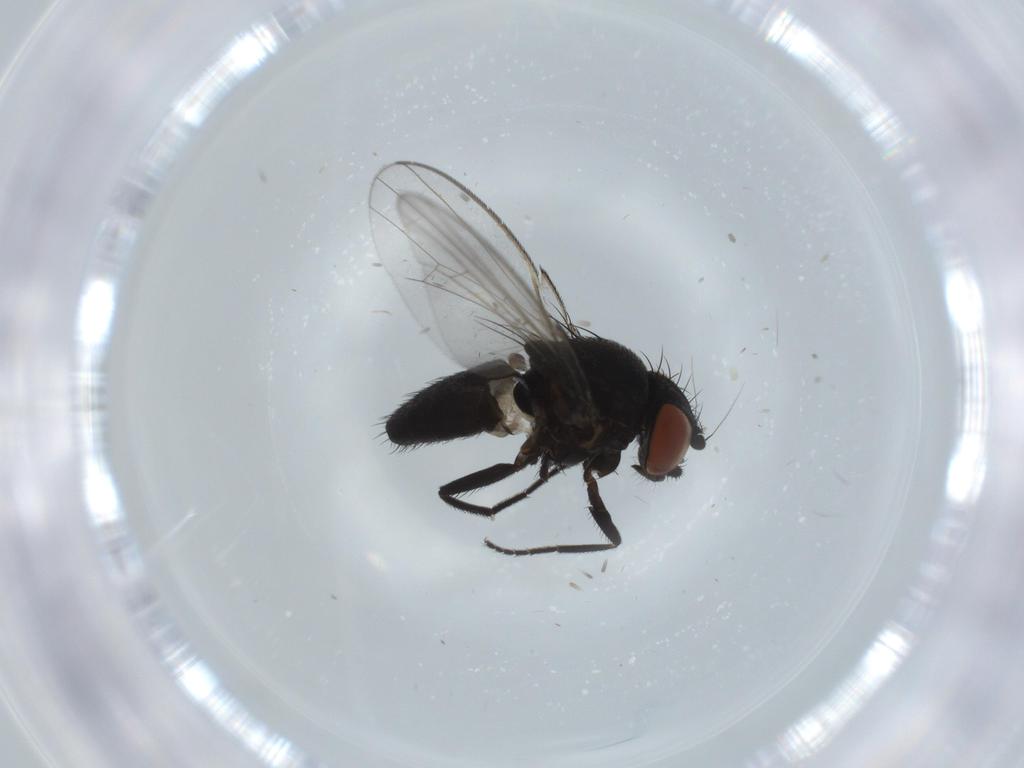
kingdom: Animalia
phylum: Arthropoda
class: Insecta
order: Diptera
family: Milichiidae
